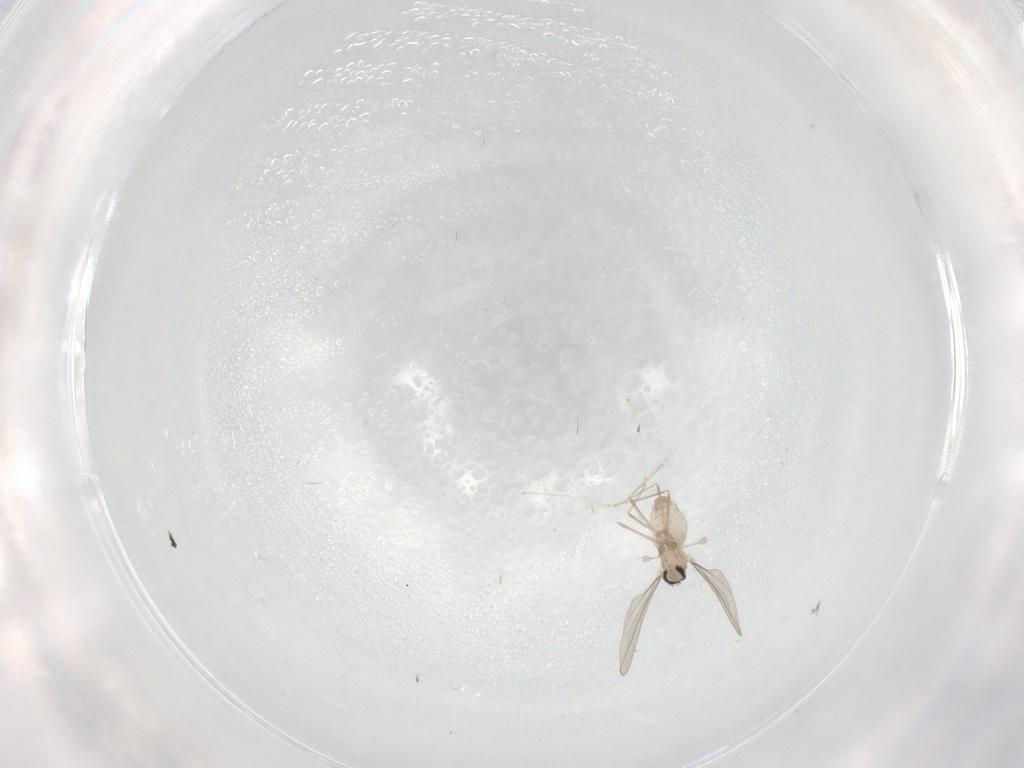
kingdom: Animalia
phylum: Arthropoda
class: Insecta
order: Diptera
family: Cecidomyiidae
